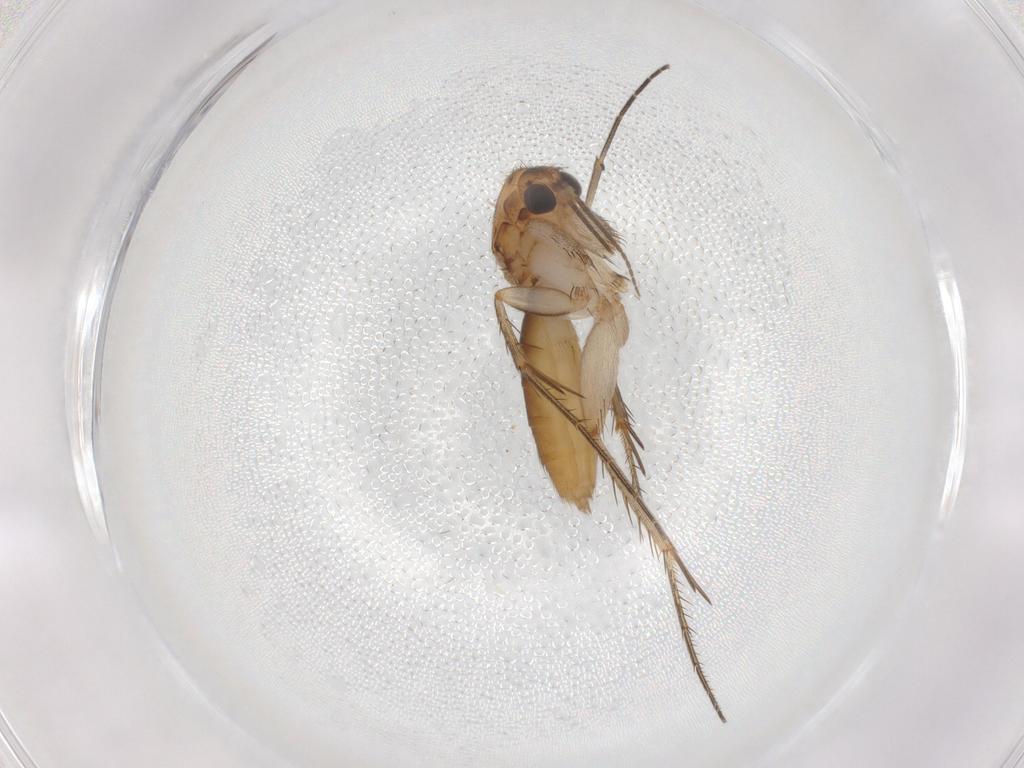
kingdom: Animalia
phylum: Arthropoda
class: Insecta
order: Diptera
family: Mycetophilidae
